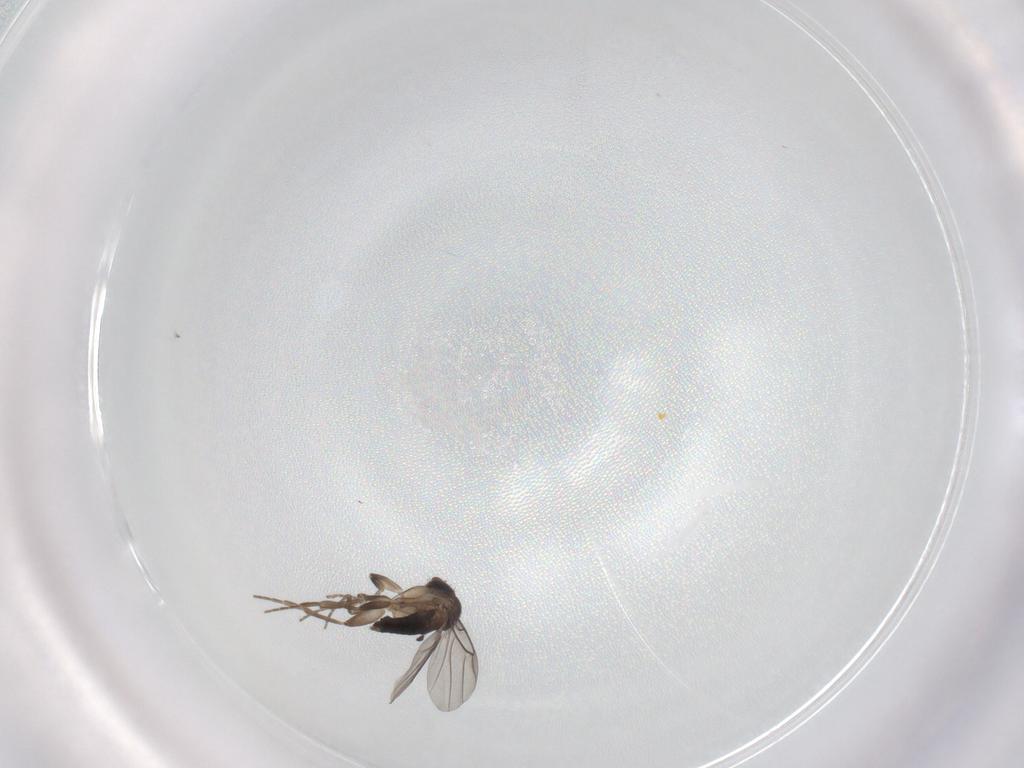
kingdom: Animalia
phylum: Arthropoda
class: Insecta
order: Diptera
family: Phoridae
